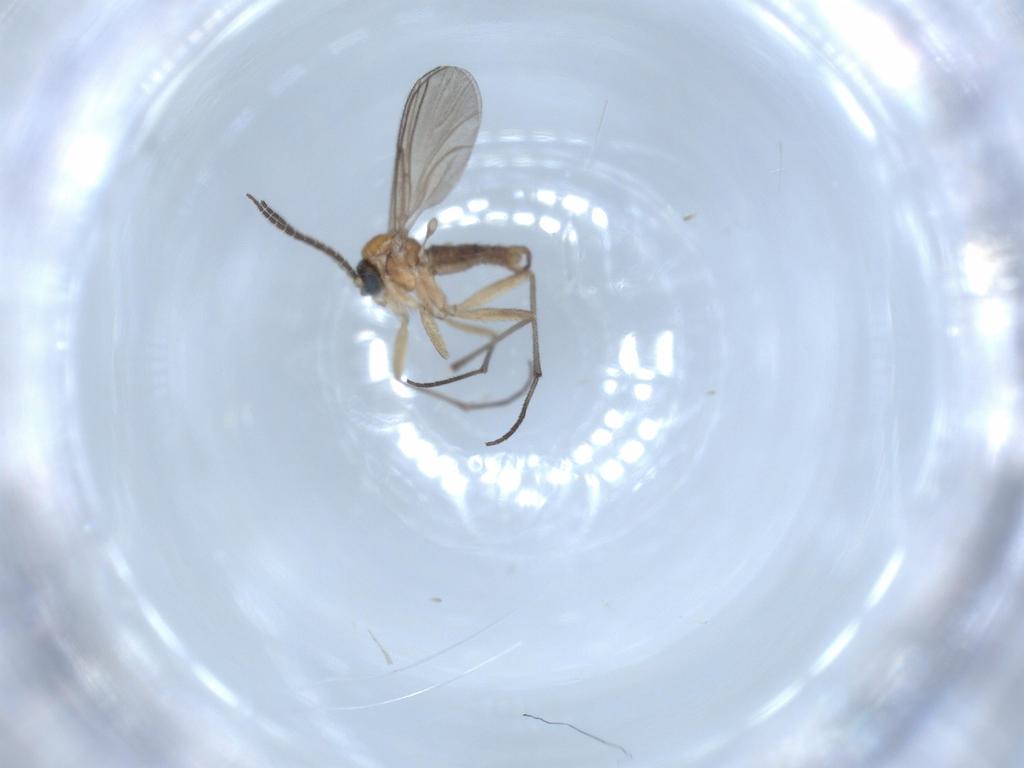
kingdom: Animalia
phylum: Arthropoda
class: Insecta
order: Diptera
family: Sciaridae
